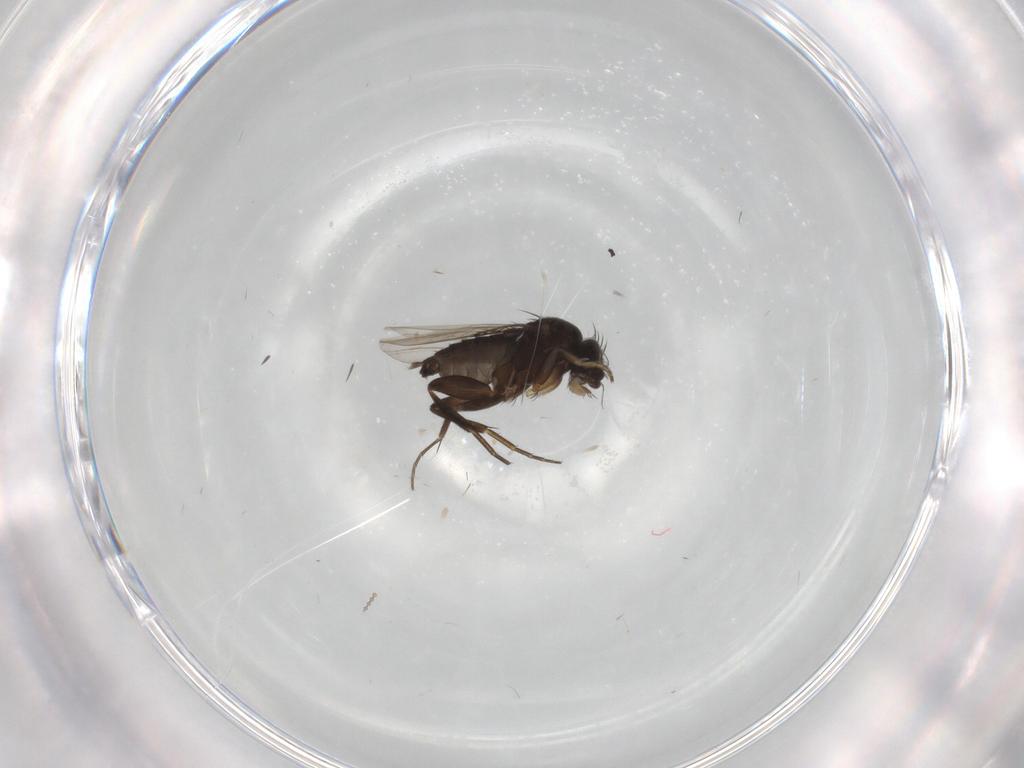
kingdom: Animalia
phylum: Arthropoda
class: Insecta
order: Diptera
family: Phoridae
